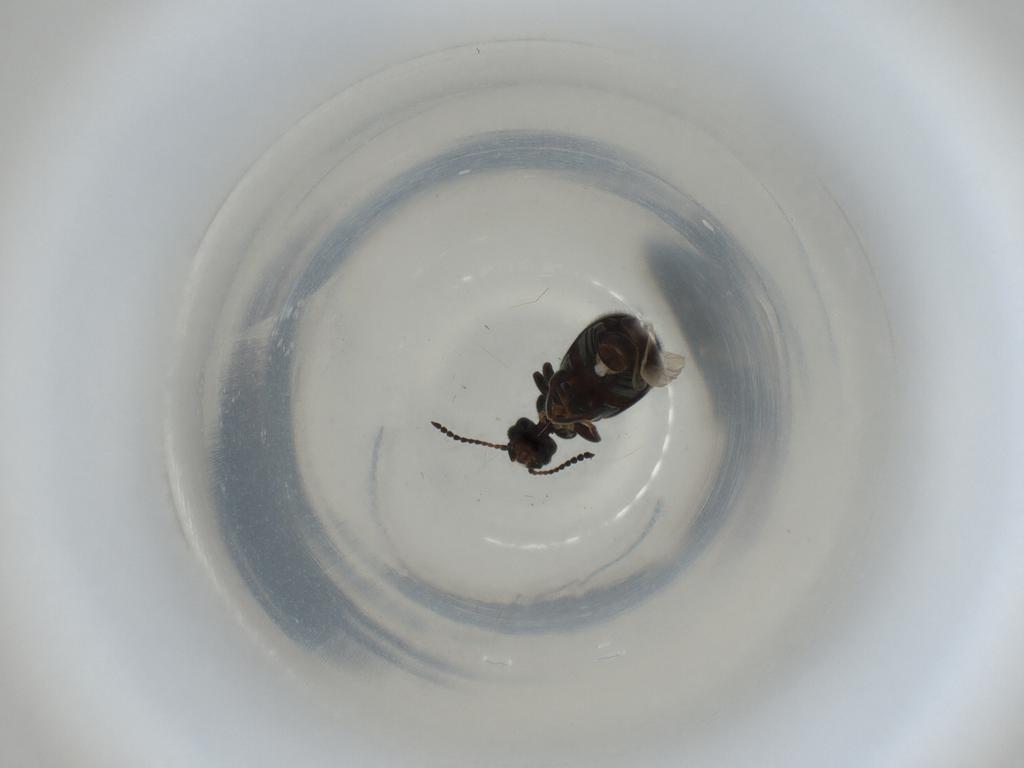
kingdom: Animalia
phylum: Arthropoda
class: Insecta
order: Coleoptera
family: Anthicidae
